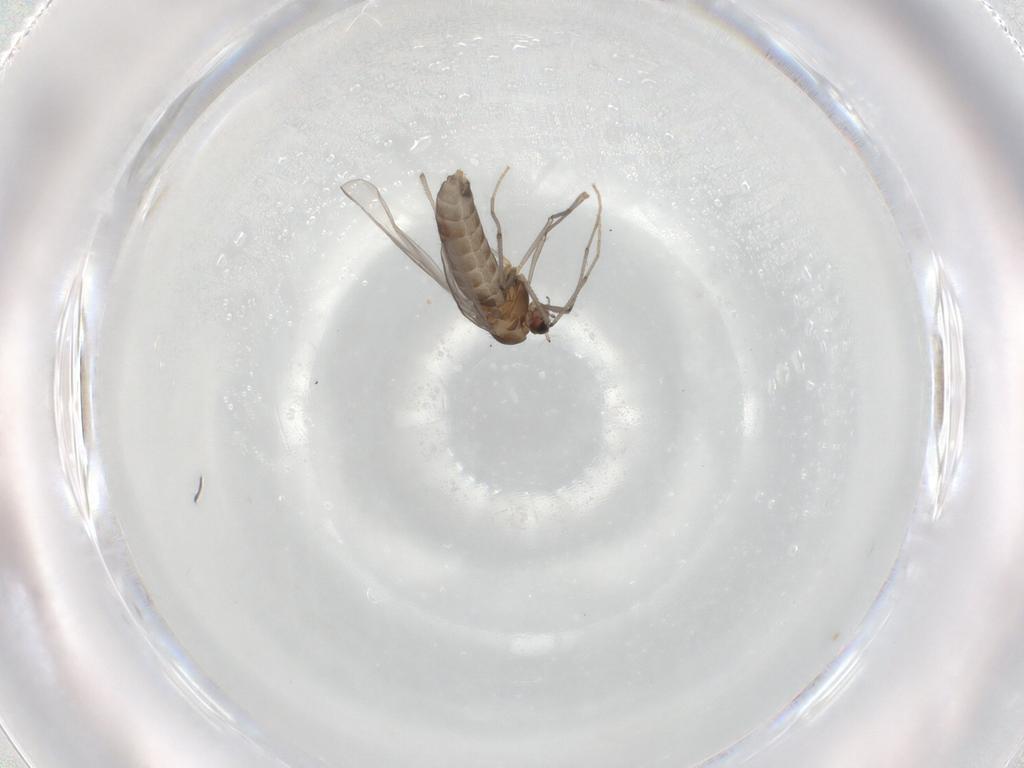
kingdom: Animalia
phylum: Arthropoda
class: Insecta
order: Diptera
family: Chironomidae
